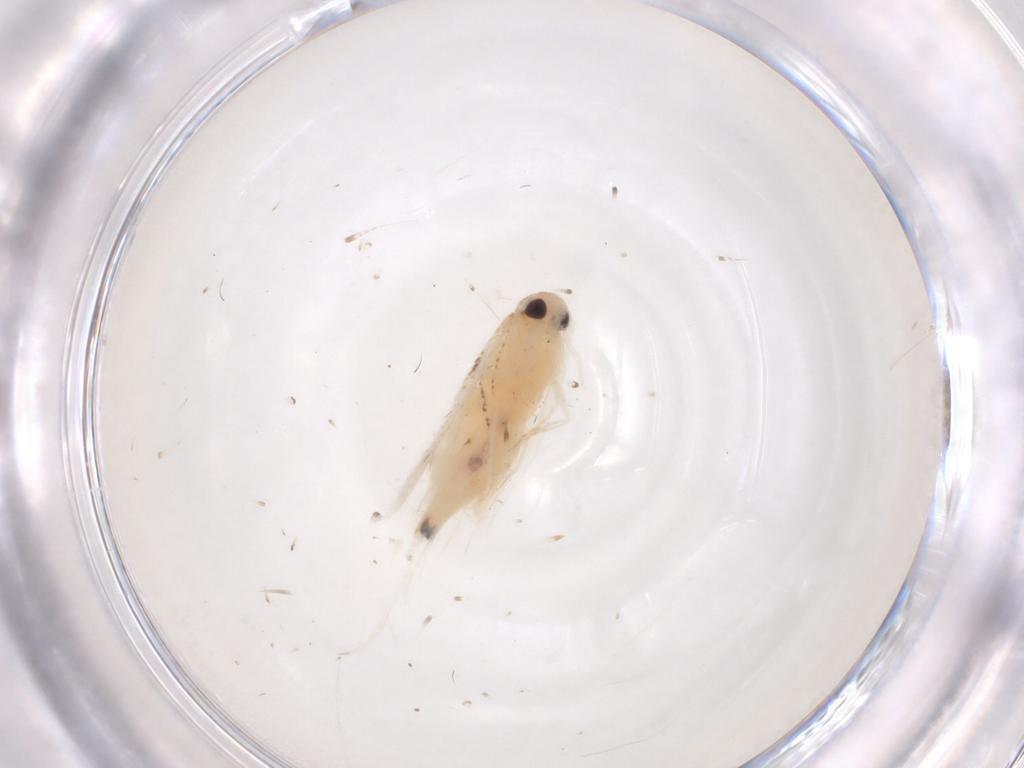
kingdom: Animalia
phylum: Arthropoda
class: Insecta
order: Lepidoptera
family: Gelechiidae
